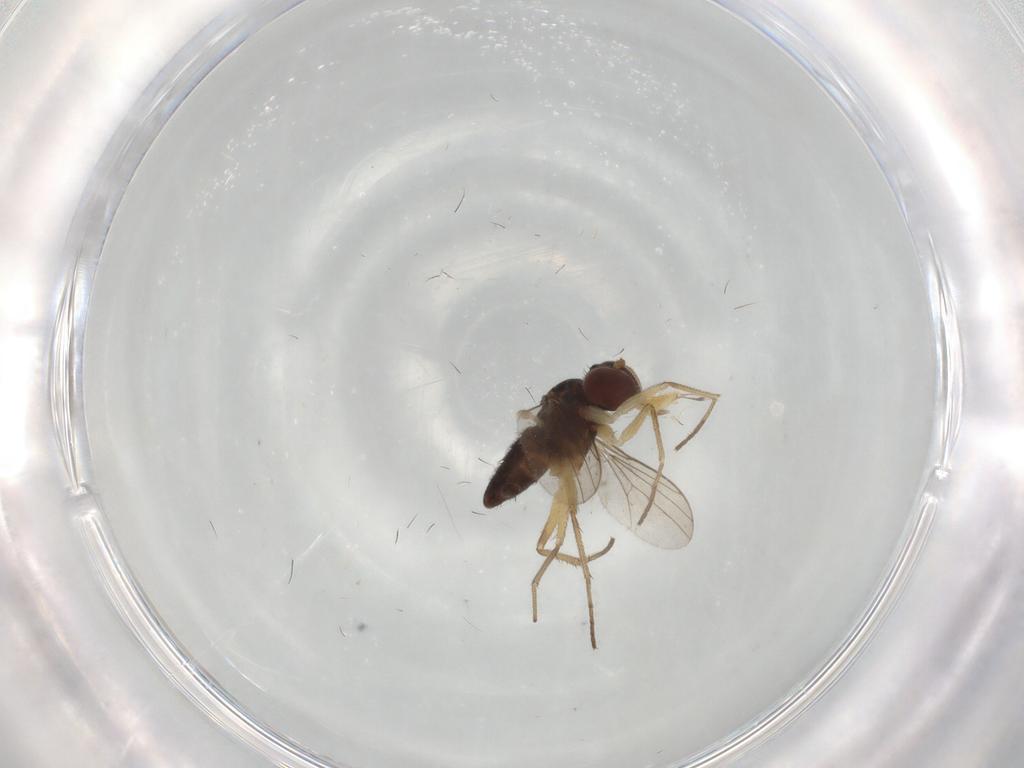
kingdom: Animalia
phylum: Arthropoda
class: Insecta
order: Diptera
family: Dolichopodidae
